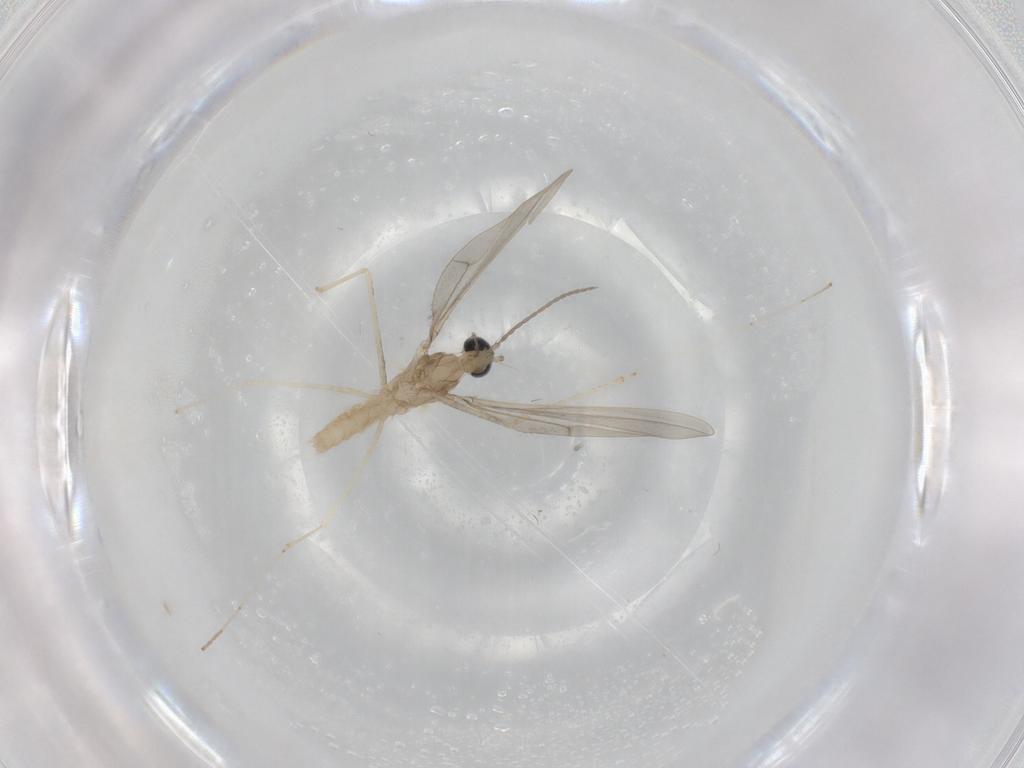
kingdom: Animalia
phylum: Arthropoda
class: Insecta
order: Diptera
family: Cecidomyiidae
